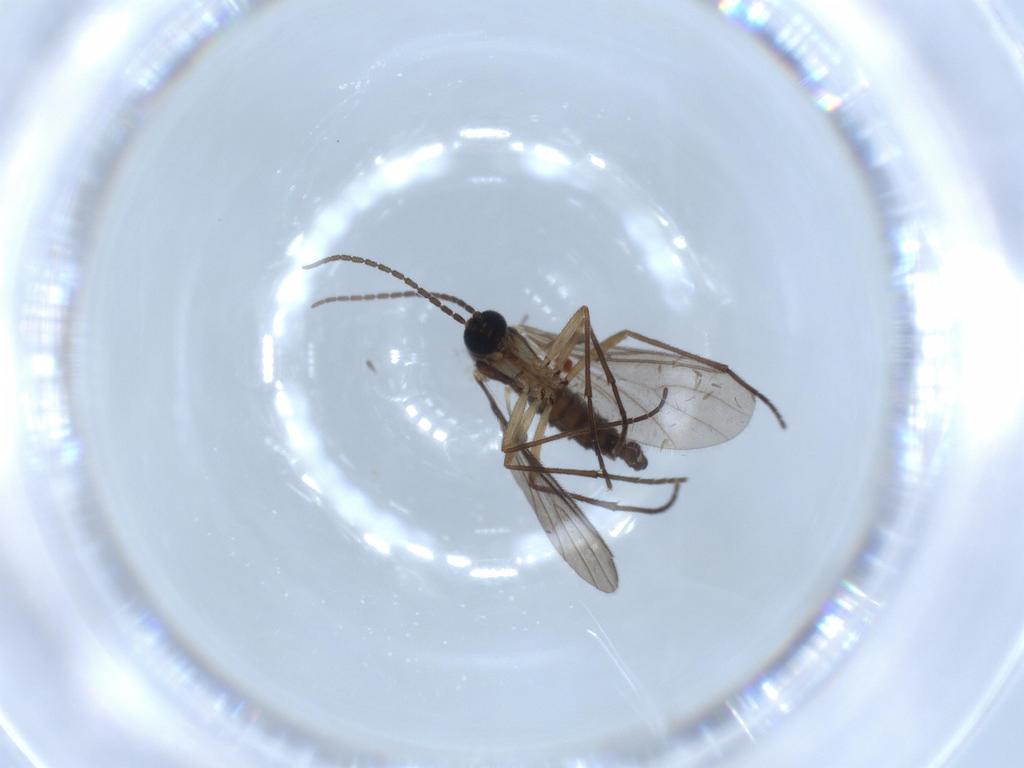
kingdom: Animalia
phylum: Arthropoda
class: Insecta
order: Diptera
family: Sciaridae
